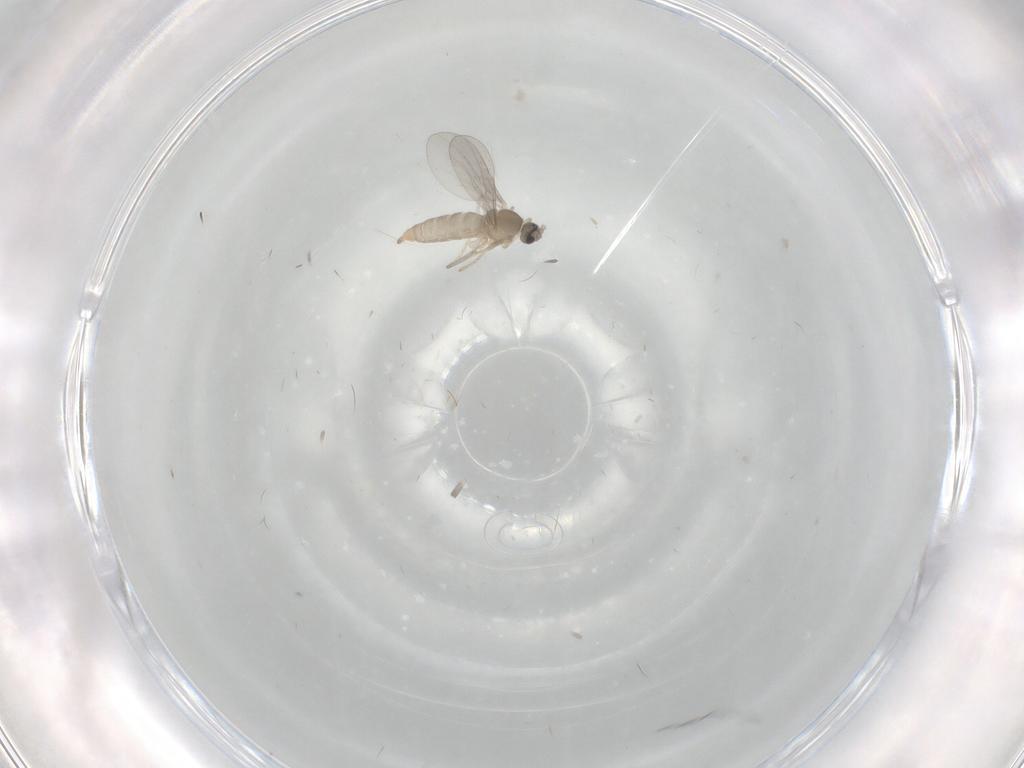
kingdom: Animalia
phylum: Arthropoda
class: Insecta
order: Diptera
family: Cecidomyiidae
